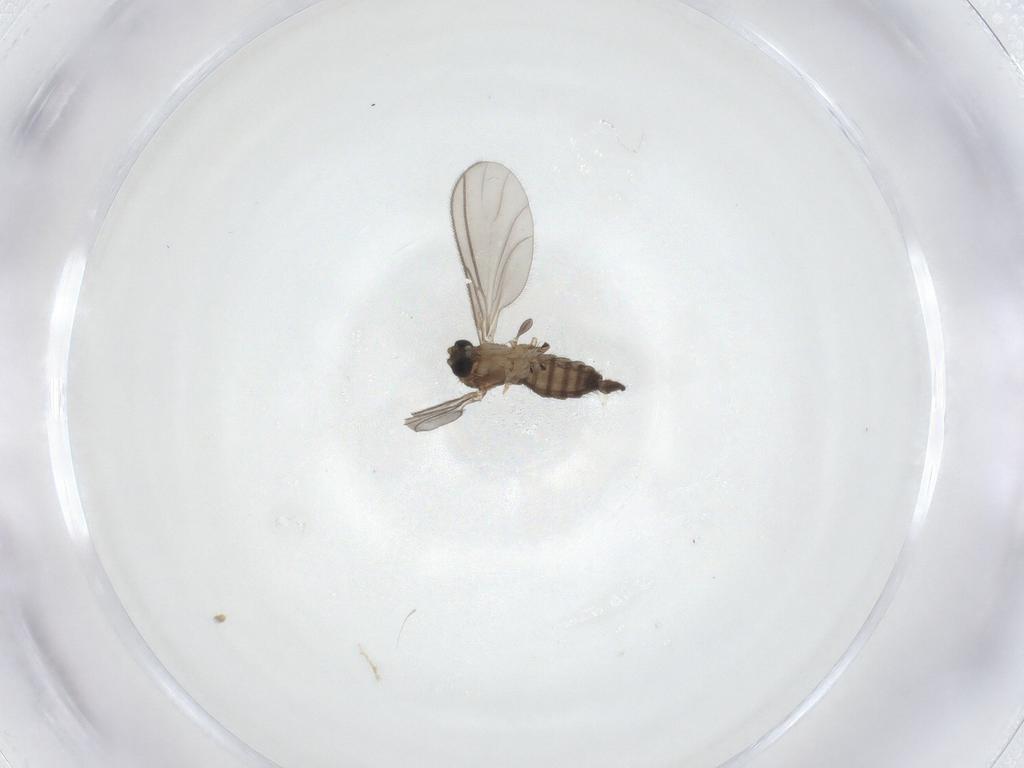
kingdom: Animalia
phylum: Arthropoda
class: Insecta
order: Diptera
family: Sciaridae
